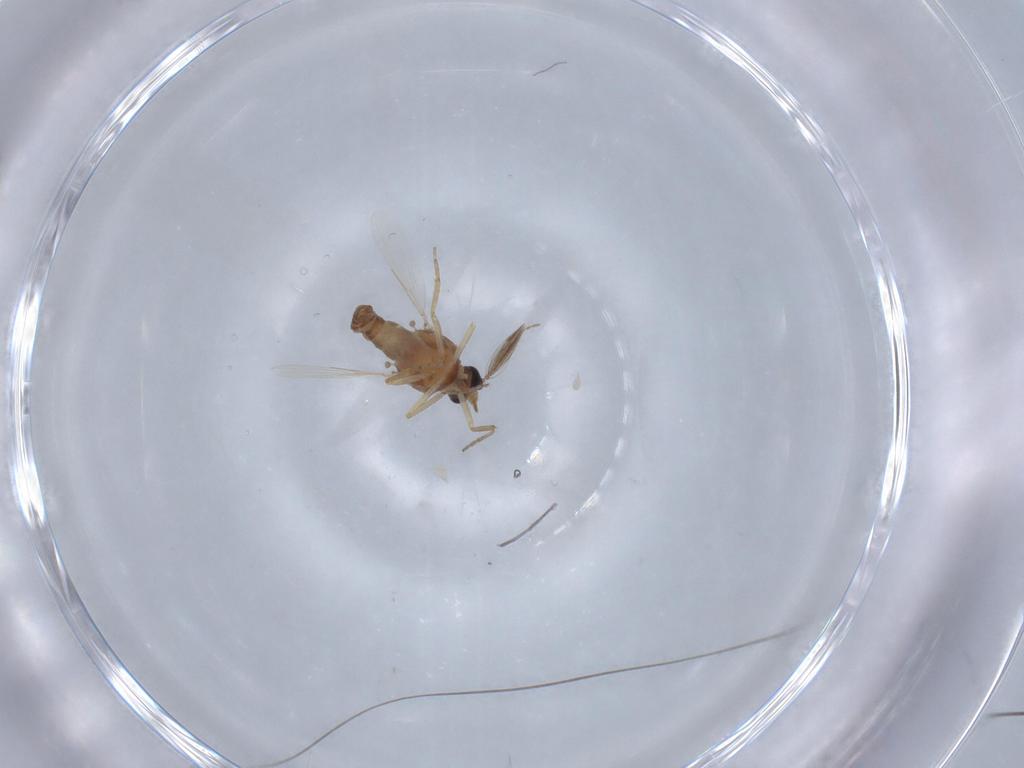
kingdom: Animalia
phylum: Arthropoda
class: Insecta
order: Diptera
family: Ceratopogonidae
